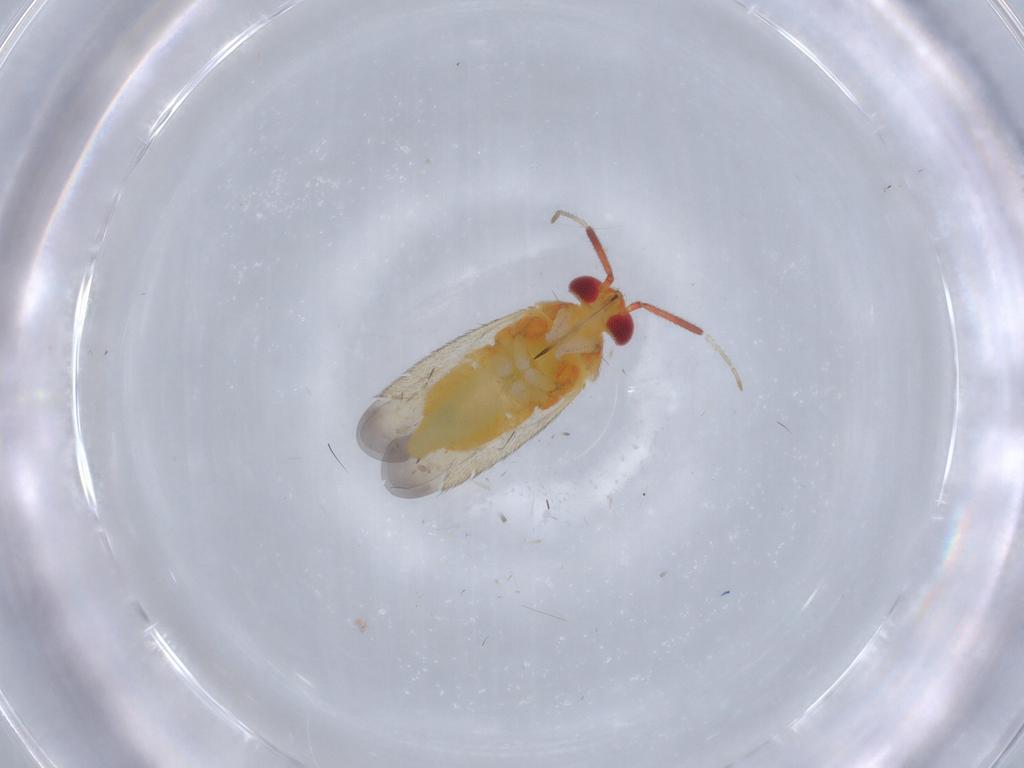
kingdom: Animalia
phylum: Arthropoda
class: Insecta
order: Hemiptera
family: Miridae
